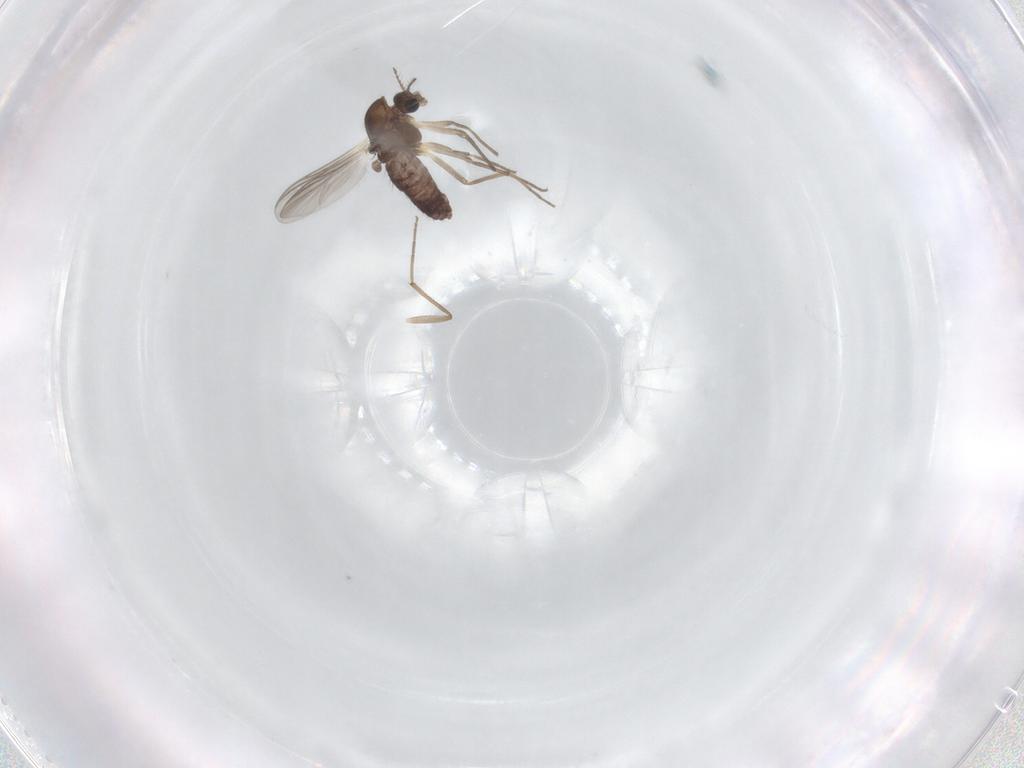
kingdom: Animalia
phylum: Arthropoda
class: Insecta
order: Diptera
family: Chironomidae
